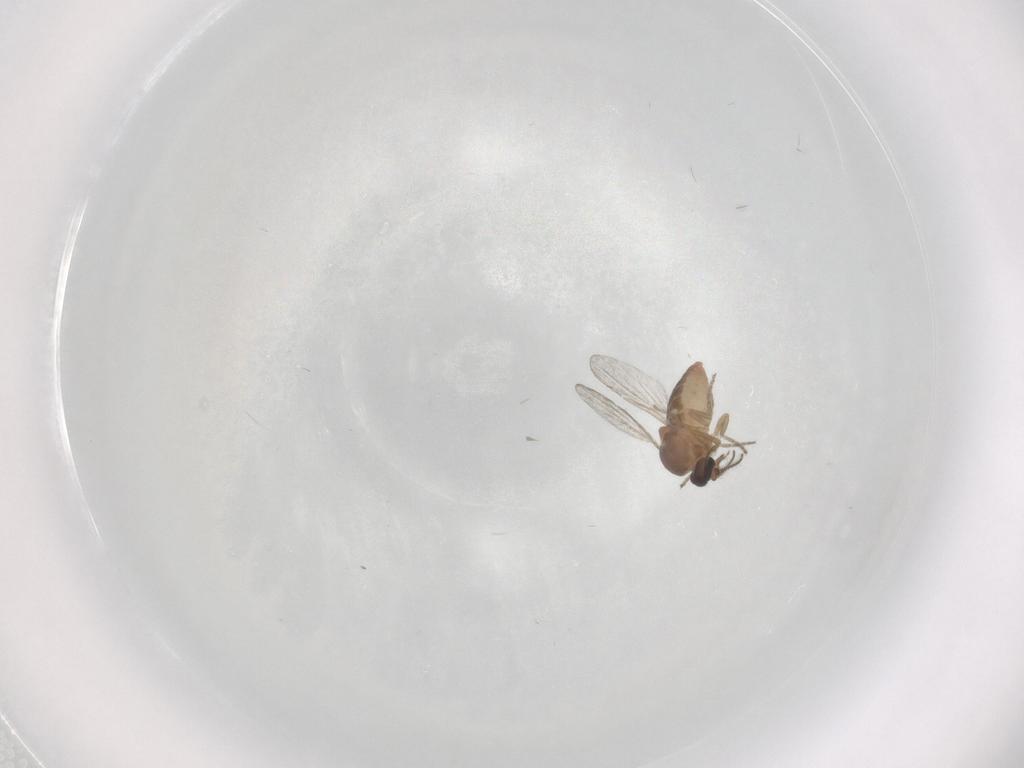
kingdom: Animalia
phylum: Arthropoda
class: Insecta
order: Diptera
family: Ceratopogonidae
